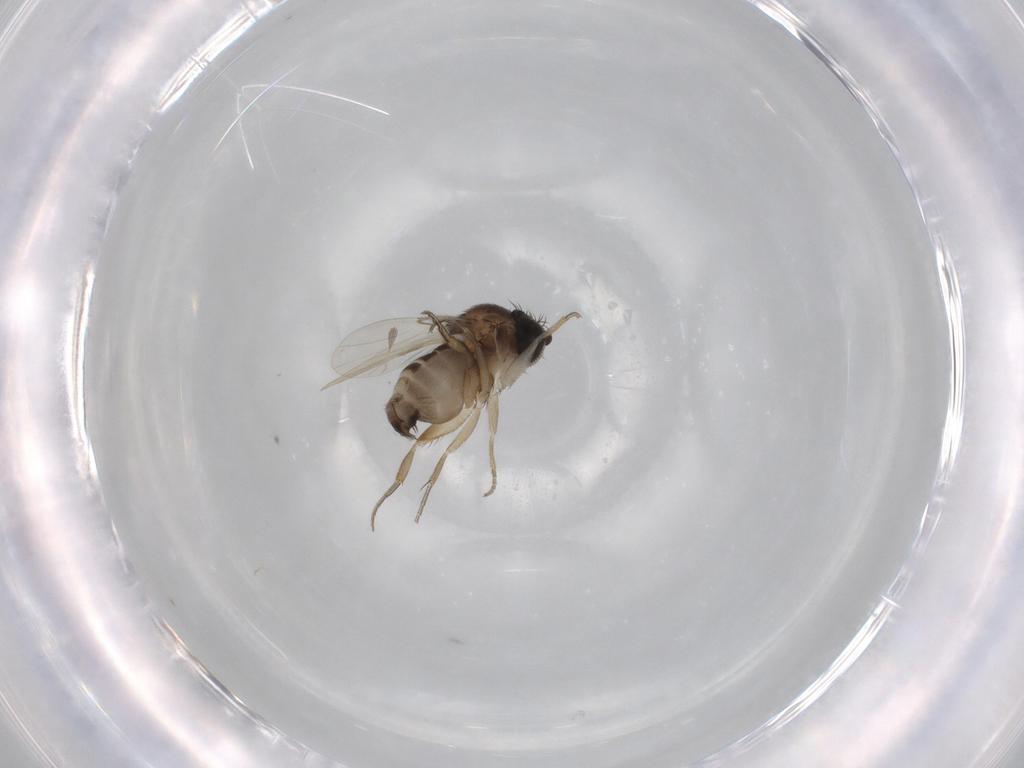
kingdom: Animalia
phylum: Arthropoda
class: Insecta
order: Diptera
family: Phoridae
